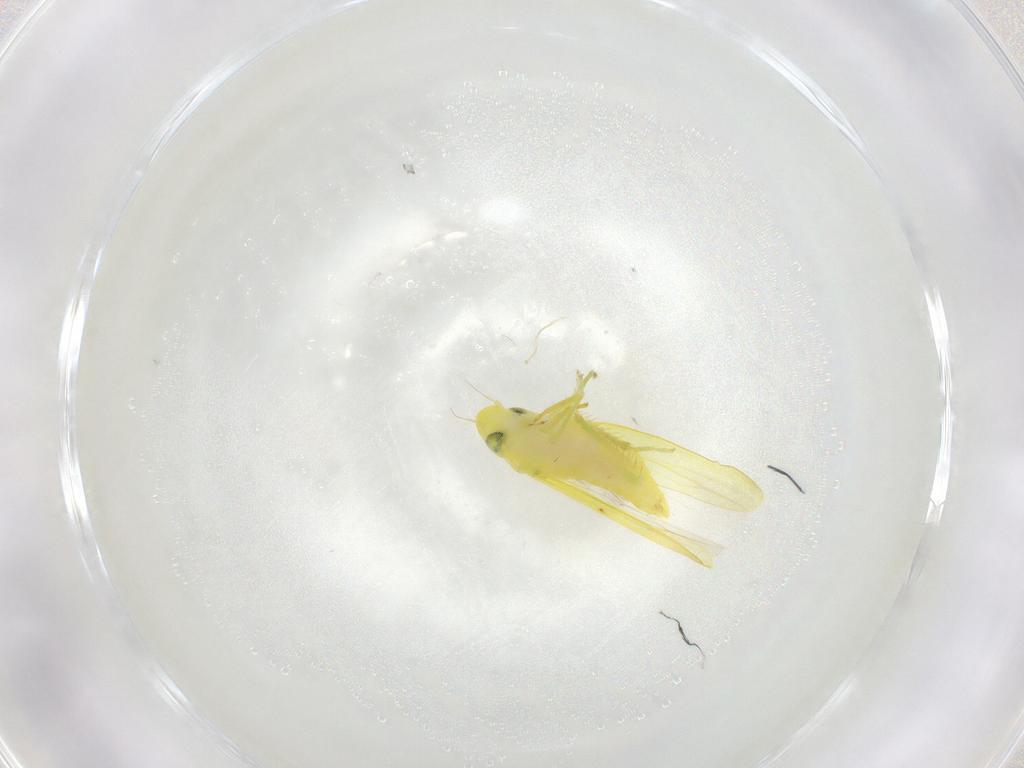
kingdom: Animalia
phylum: Arthropoda
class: Insecta
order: Hemiptera
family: Cicadellidae
